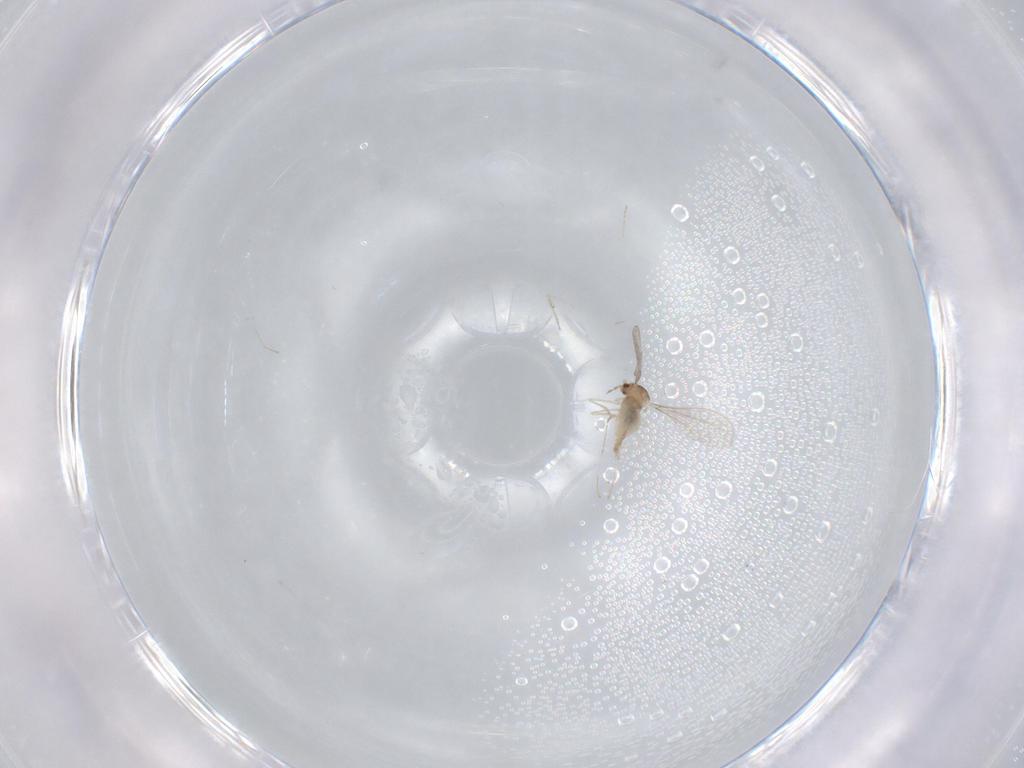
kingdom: Animalia
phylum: Arthropoda
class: Insecta
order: Diptera
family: Cecidomyiidae
